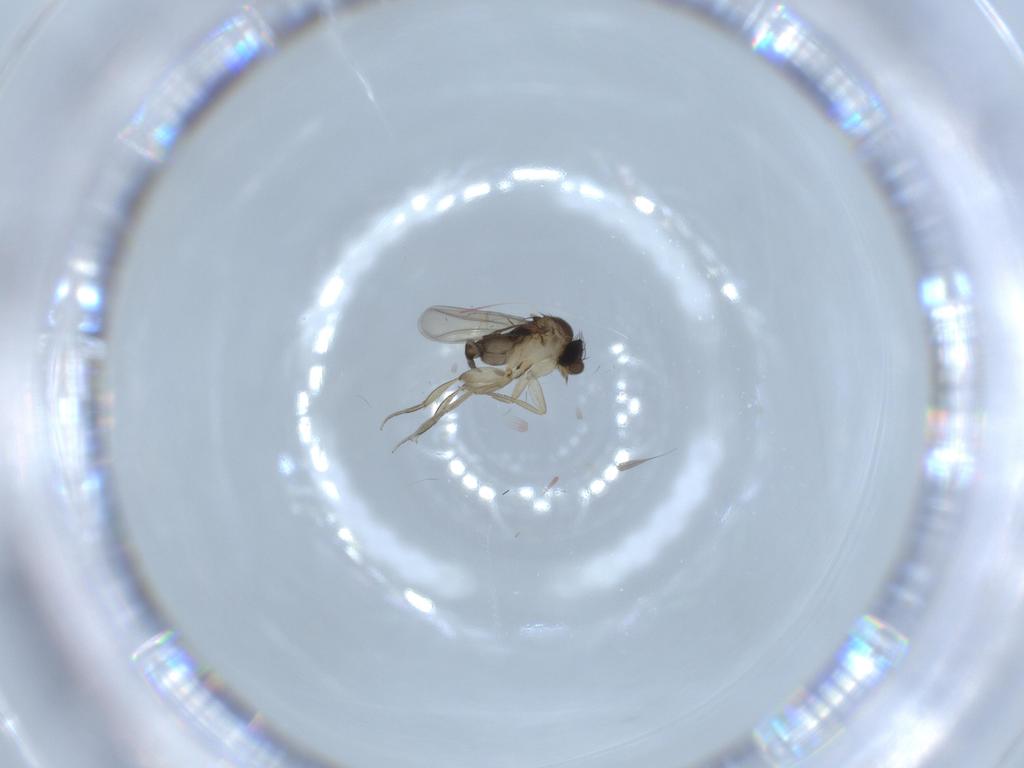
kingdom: Animalia
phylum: Arthropoda
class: Insecta
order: Diptera
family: Phoridae
